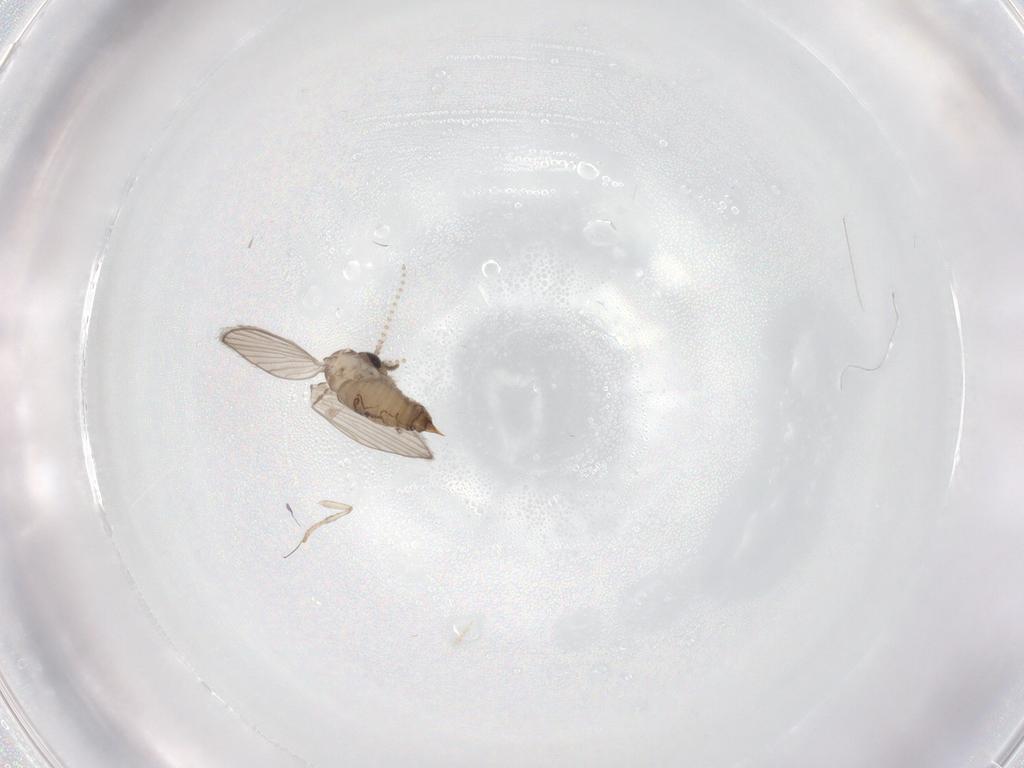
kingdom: Animalia
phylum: Arthropoda
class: Insecta
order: Diptera
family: Psychodidae
